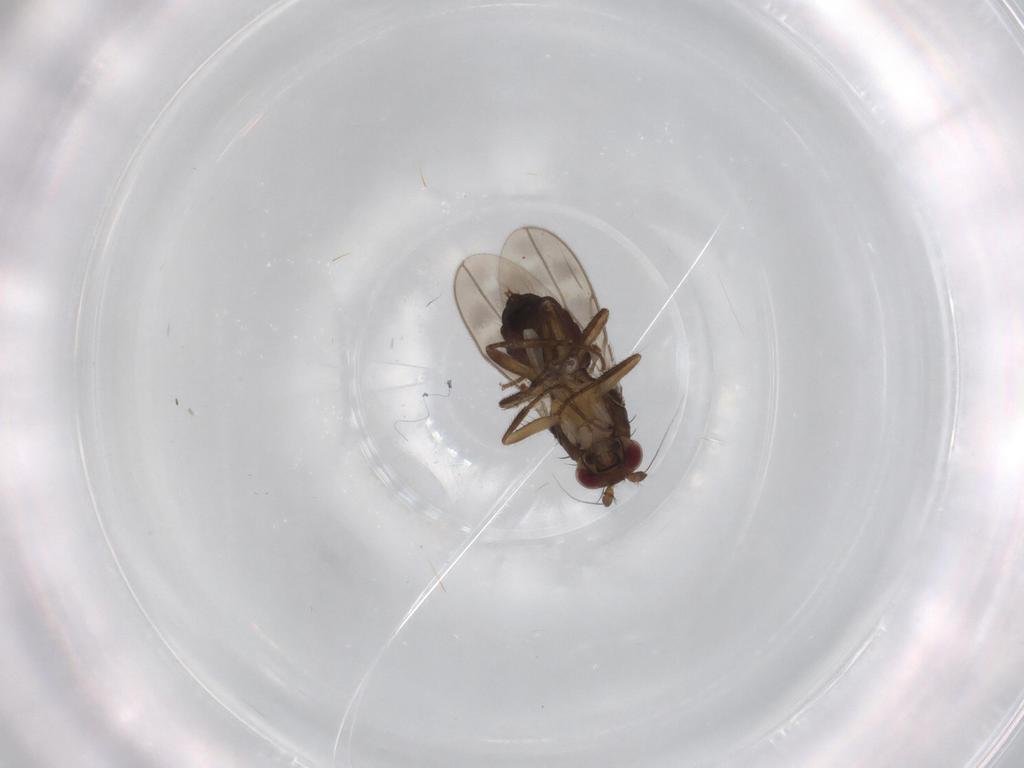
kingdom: Animalia
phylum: Arthropoda
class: Insecta
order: Diptera
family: Sphaeroceridae
